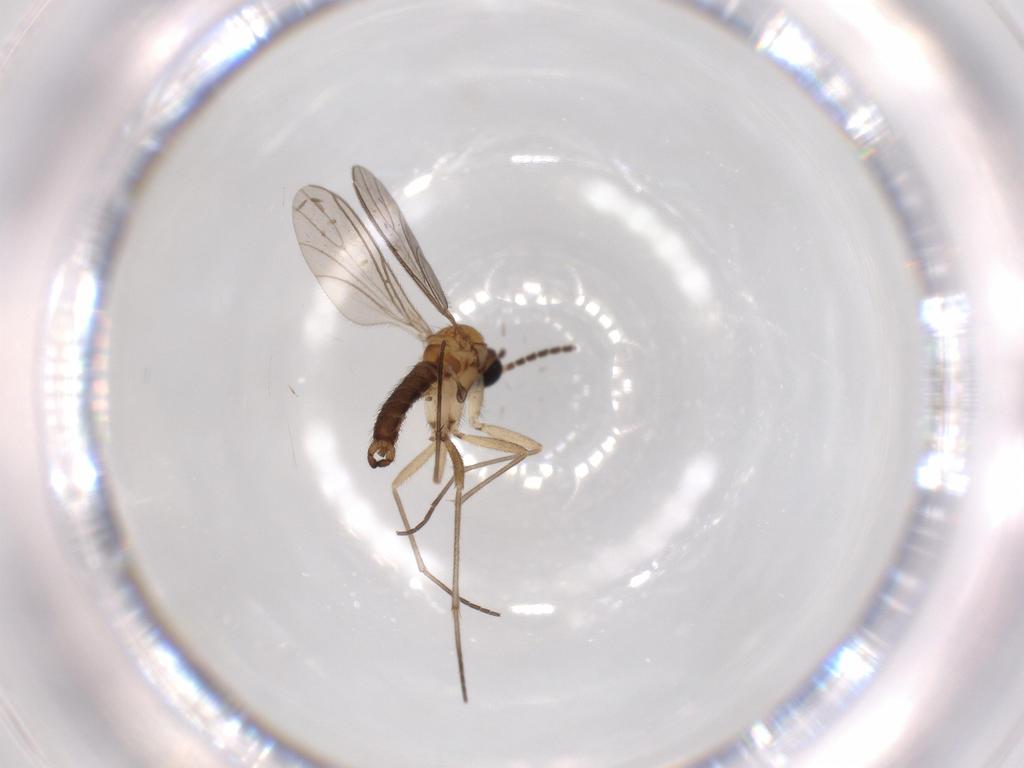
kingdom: Animalia
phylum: Arthropoda
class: Insecta
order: Diptera
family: Sciaridae
